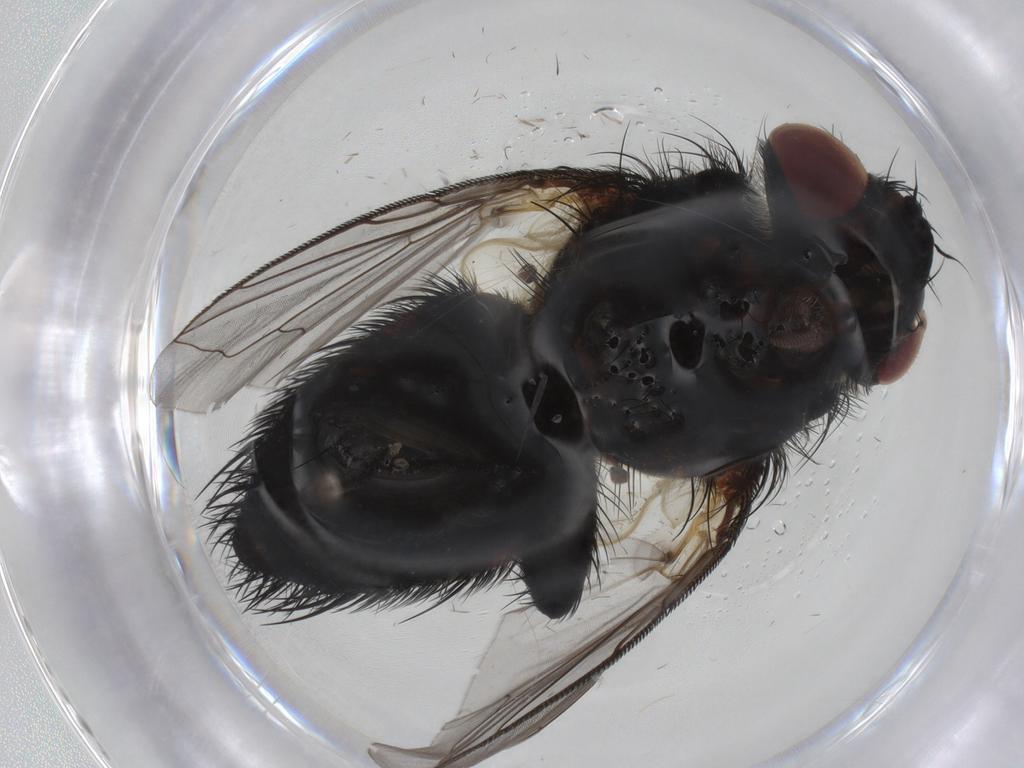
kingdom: Animalia
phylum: Arthropoda
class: Insecta
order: Diptera
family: Tachinidae
